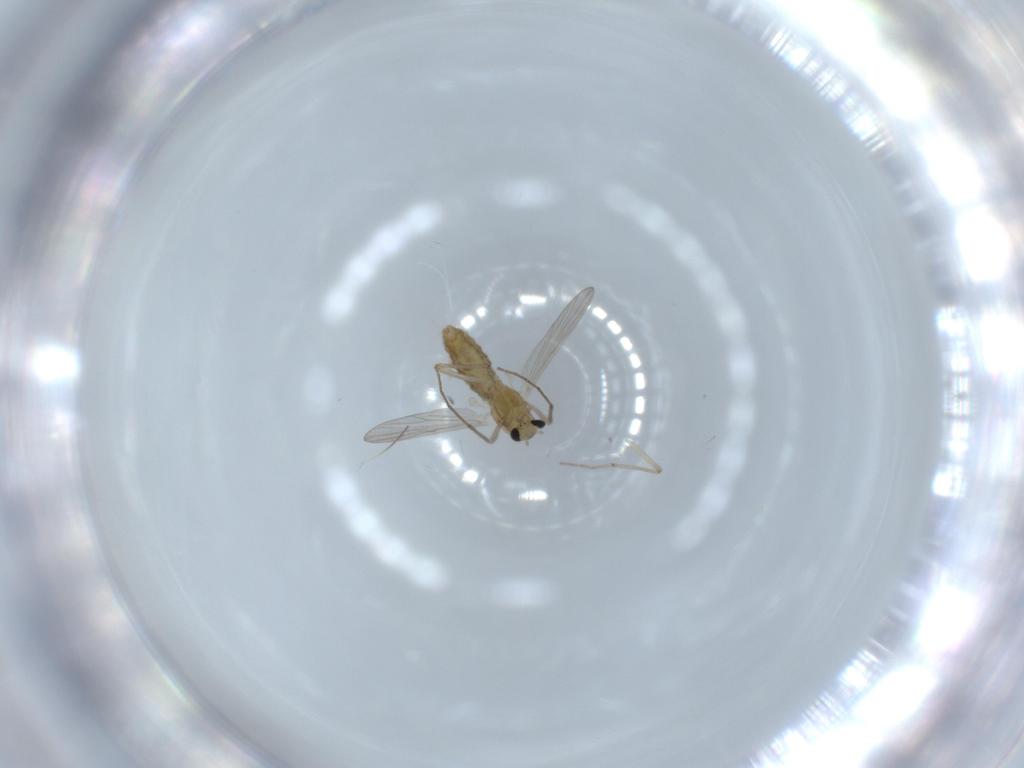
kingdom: Animalia
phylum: Arthropoda
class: Insecta
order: Diptera
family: Chironomidae
